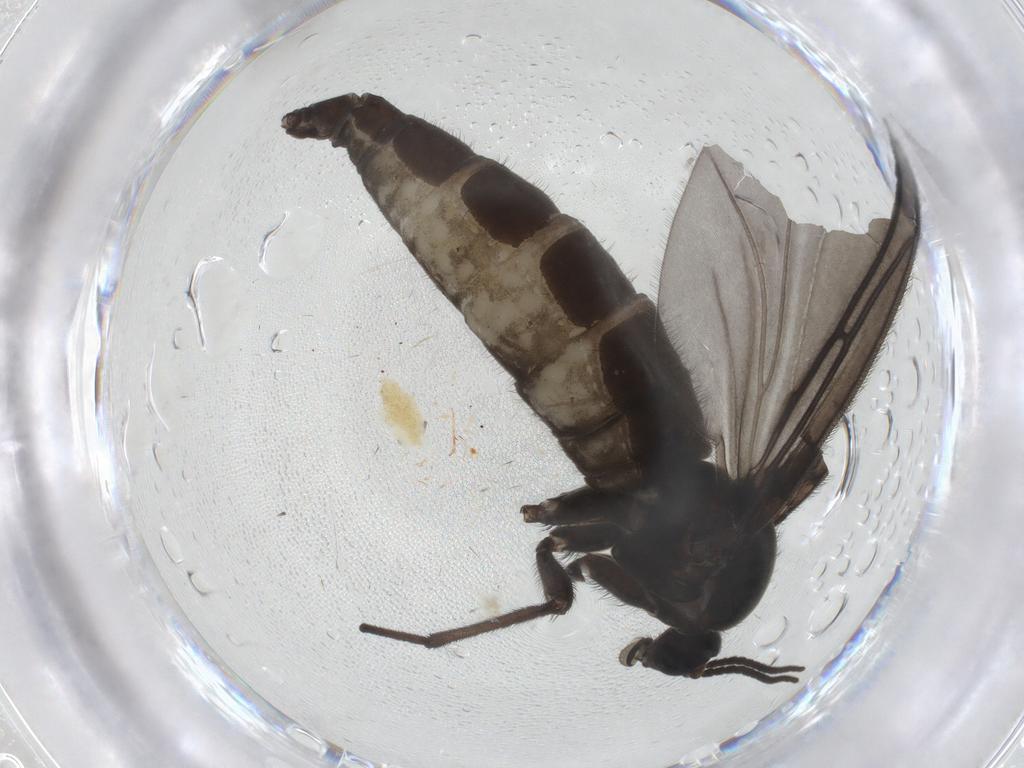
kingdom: Animalia
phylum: Arthropoda
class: Insecta
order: Diptera
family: Sciaridae
